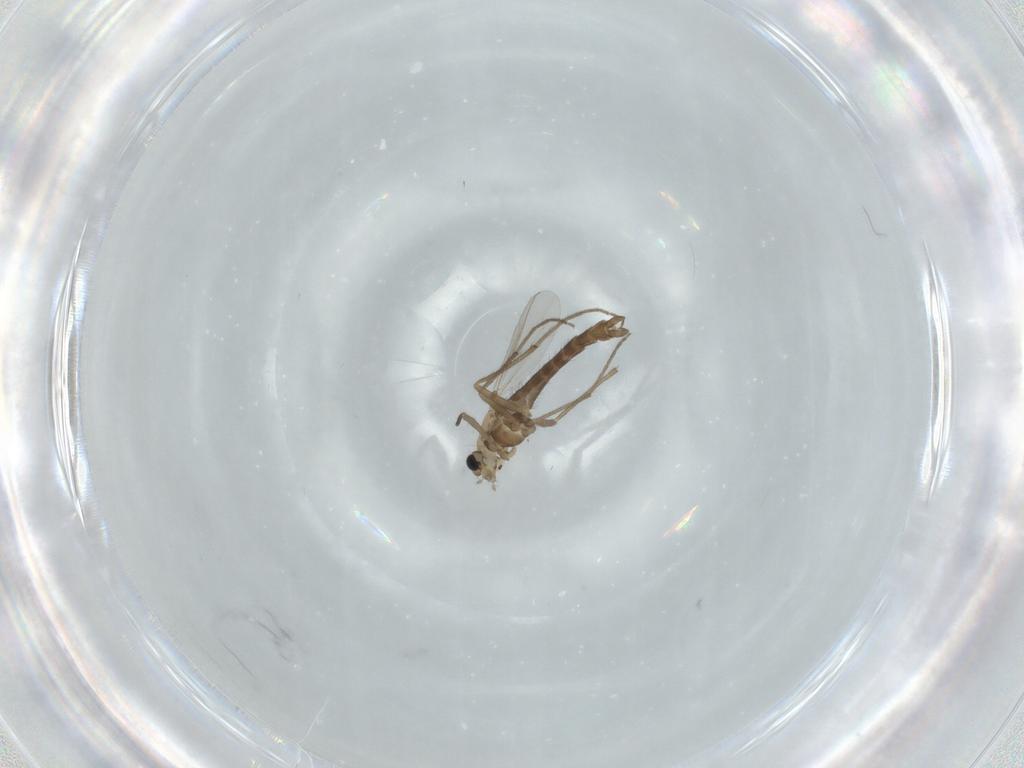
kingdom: Animalia
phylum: Arthropoda
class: Insecta
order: Diptera
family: Chironomidae
